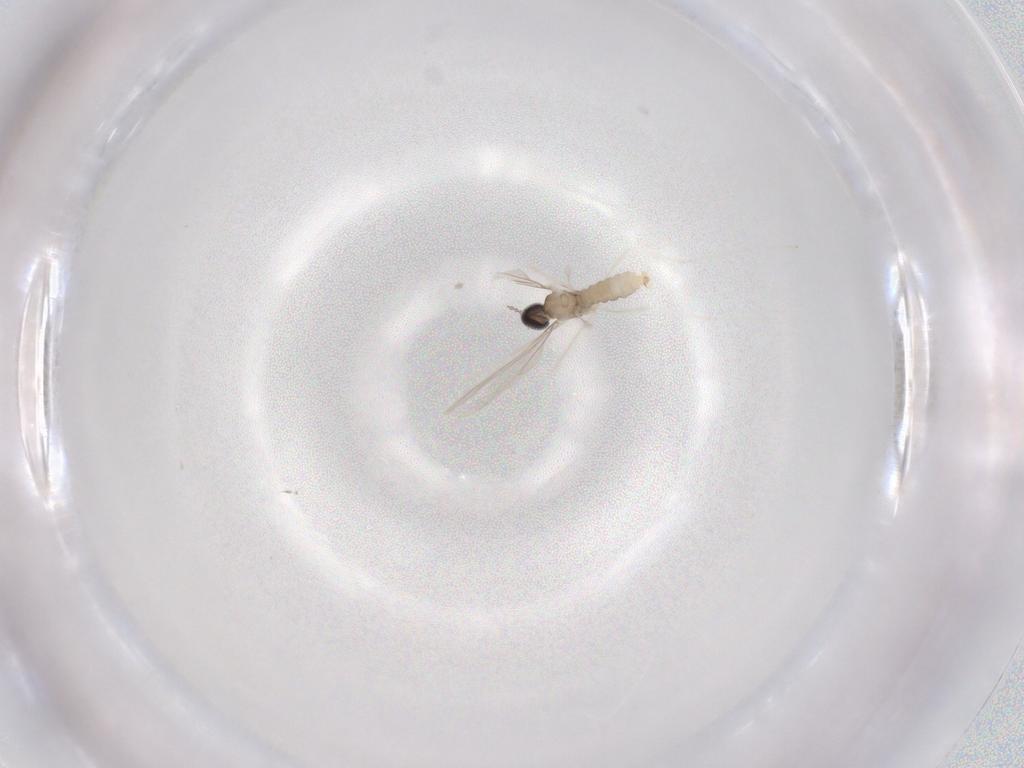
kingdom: Animalia
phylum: Arthropoda
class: Insecta
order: Diptera
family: Cecidomyiidae
